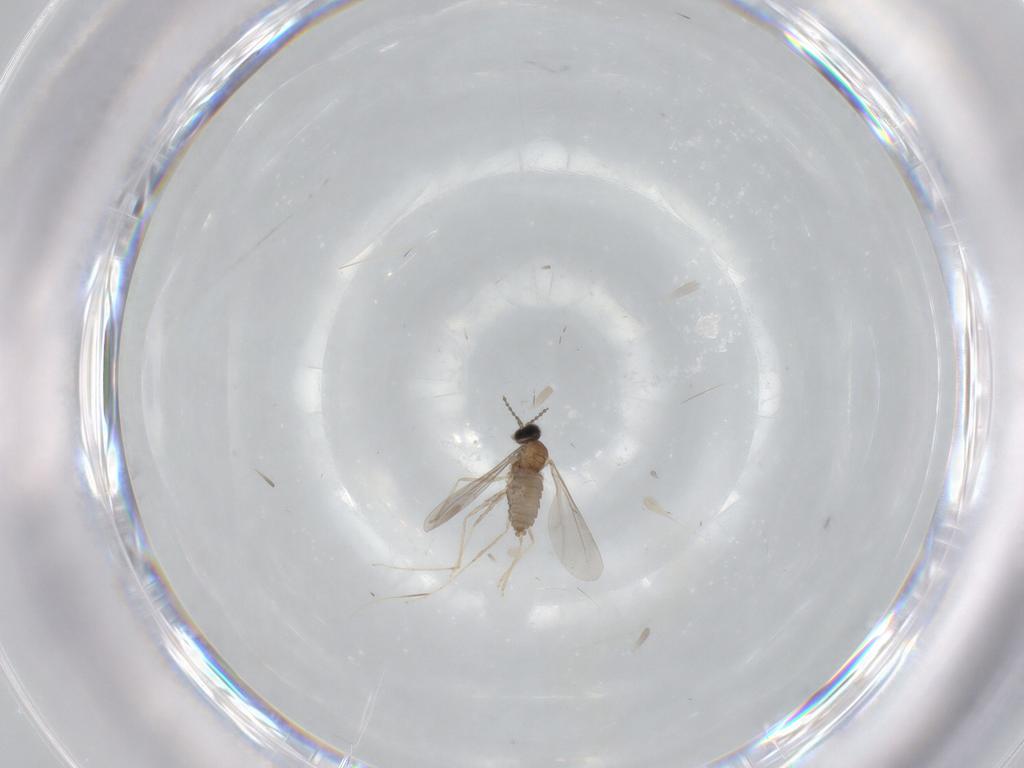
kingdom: Animalia
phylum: Arthropoda
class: Insecta
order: Diptera
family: Cecidomyiidae
